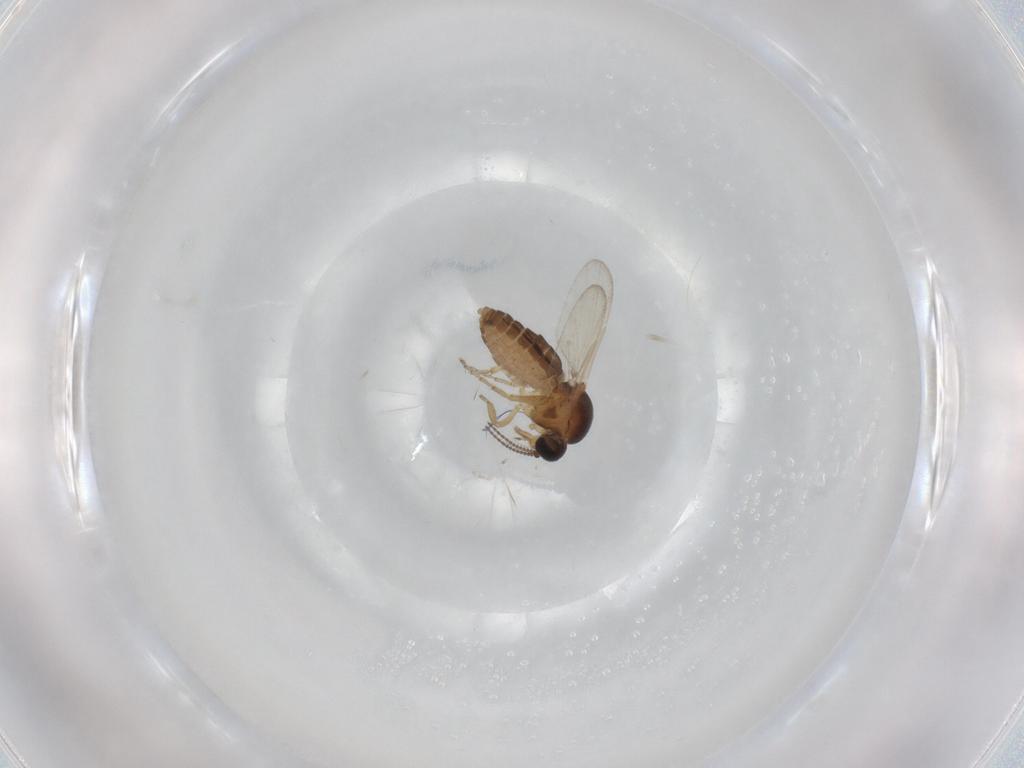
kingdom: Animalia
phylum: Arthropoda
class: Insecta
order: Diptera
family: Ceratopogonidae
